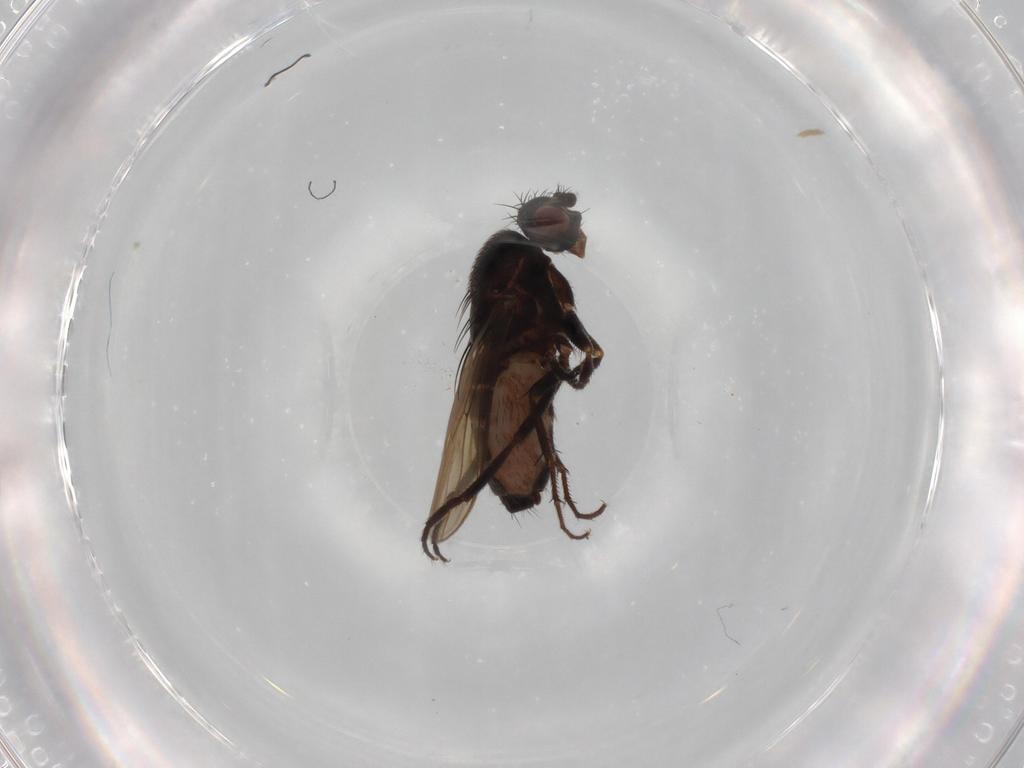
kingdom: Animalia
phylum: Arthropoda
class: Insecta
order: Diptera
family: Sphaeroceridae
